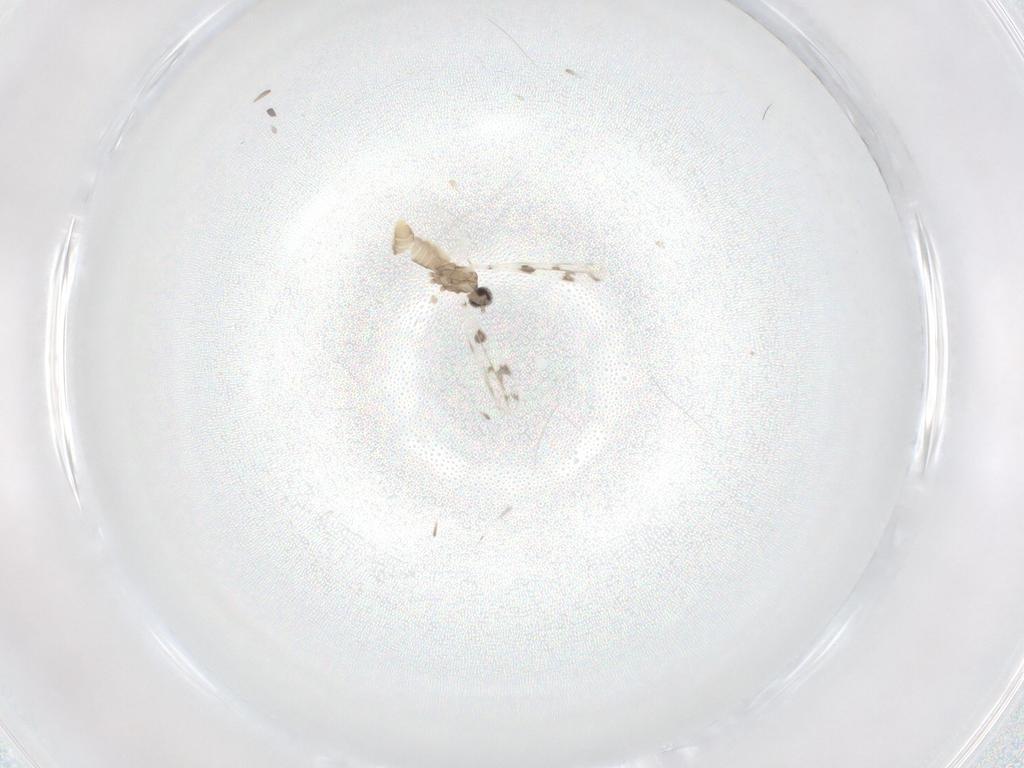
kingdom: Animalia
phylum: Arthropoda
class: Insecta
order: Diptera
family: Cecidomyiidae
